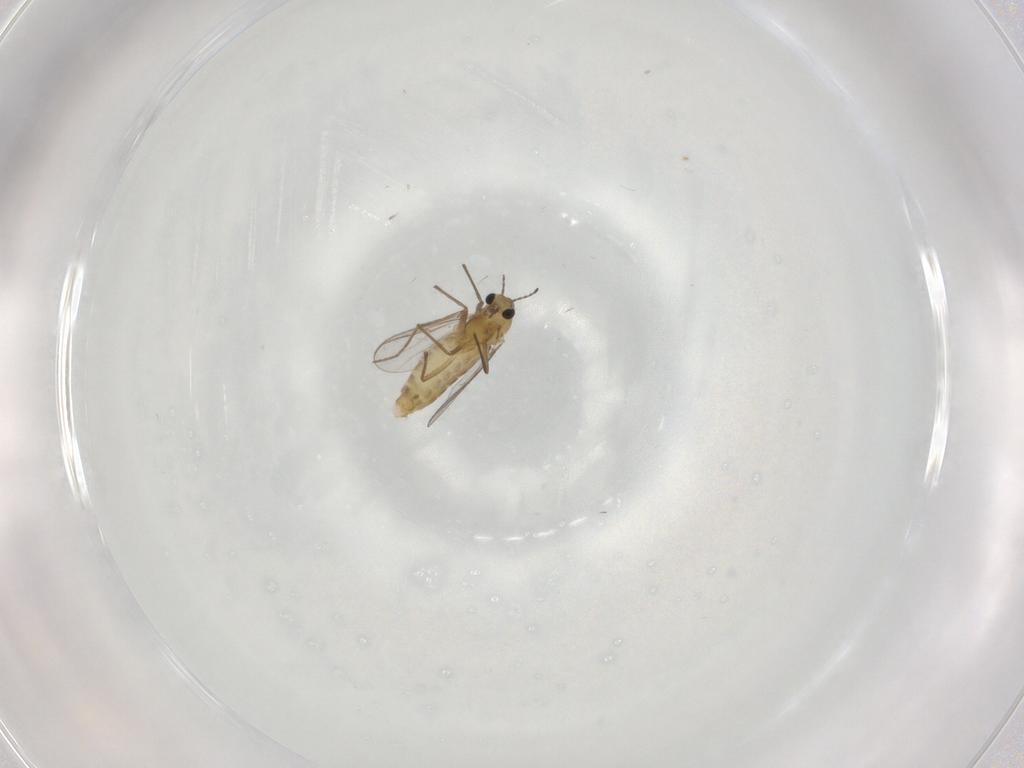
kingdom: Animalia
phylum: Arthropoda
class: Insecta
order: Diptera
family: Chironomidae
